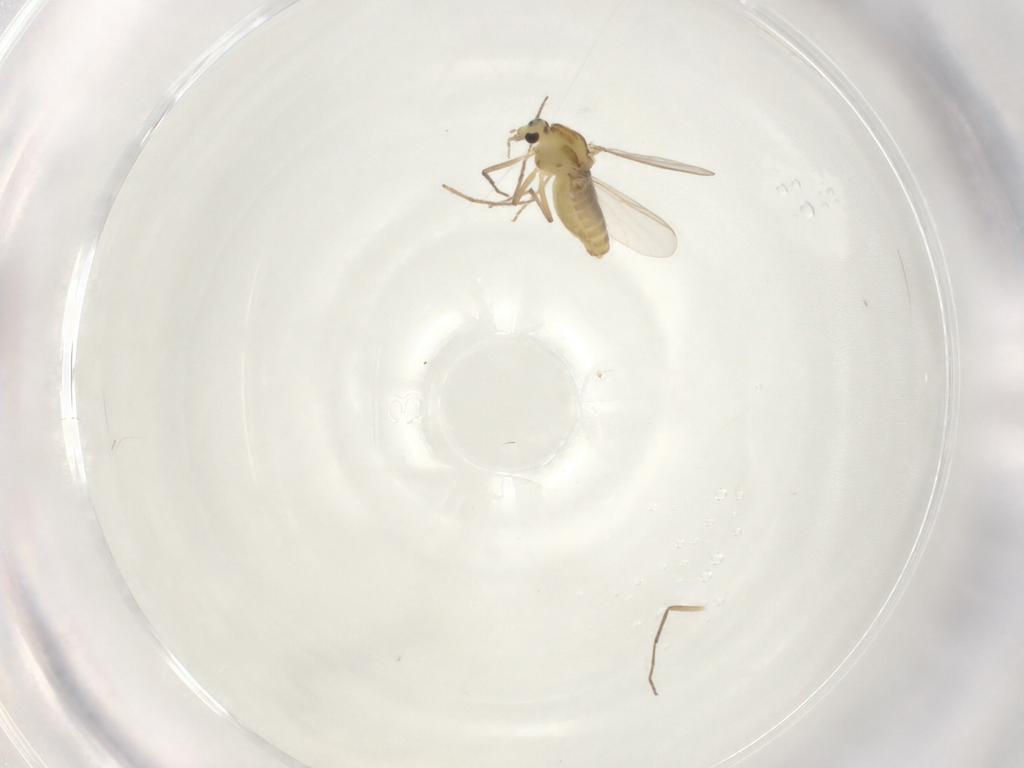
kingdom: Animalia
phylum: Arthropoda
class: Insecta
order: Diptera
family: Chironomidae
